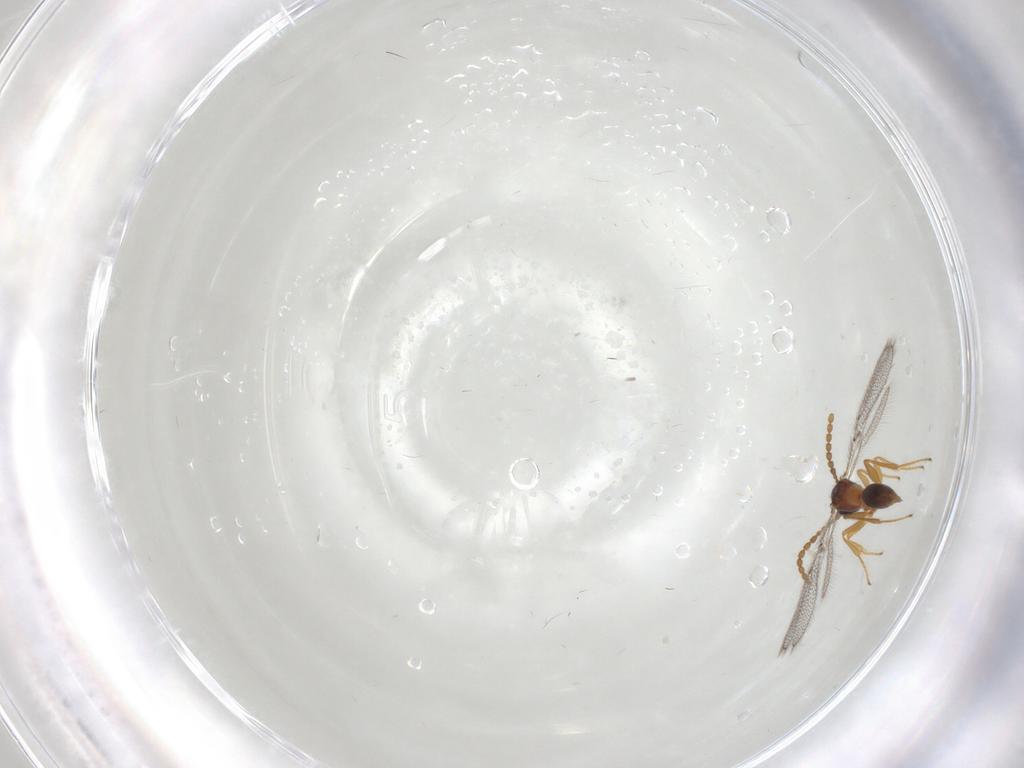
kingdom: Animalia
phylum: Arthropoda
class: Insecta
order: Hymenoptera
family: Figitidae
